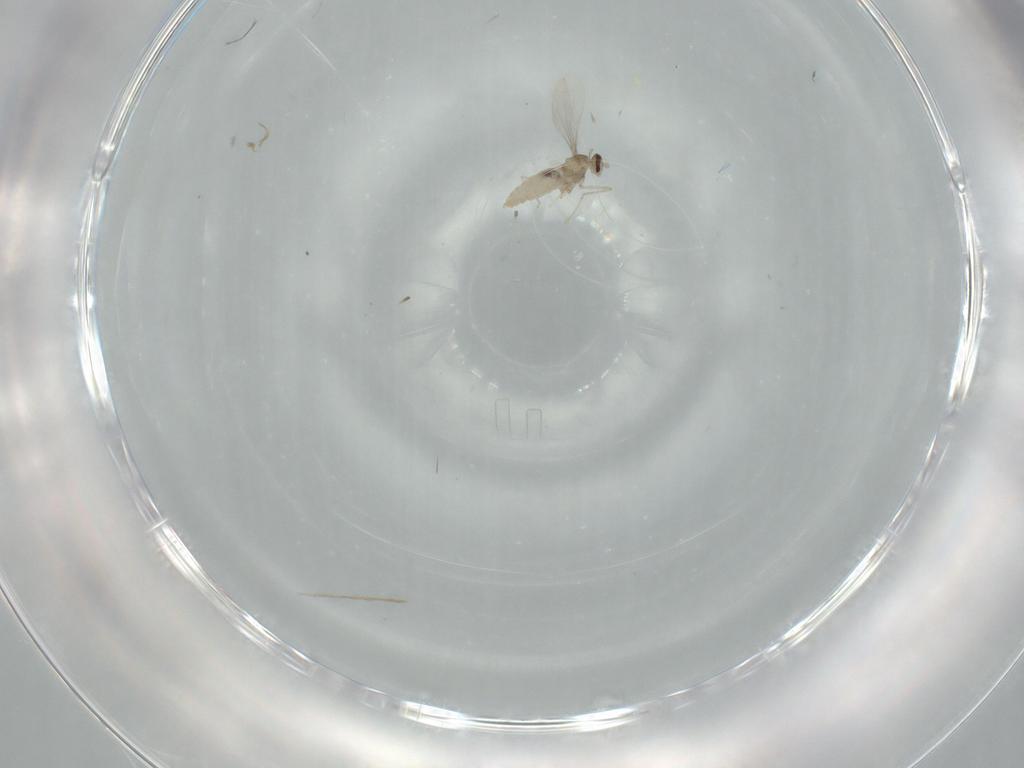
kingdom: Animalia
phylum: Arthropoda
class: Insecta
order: Diptera
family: Cecidomyiidae
